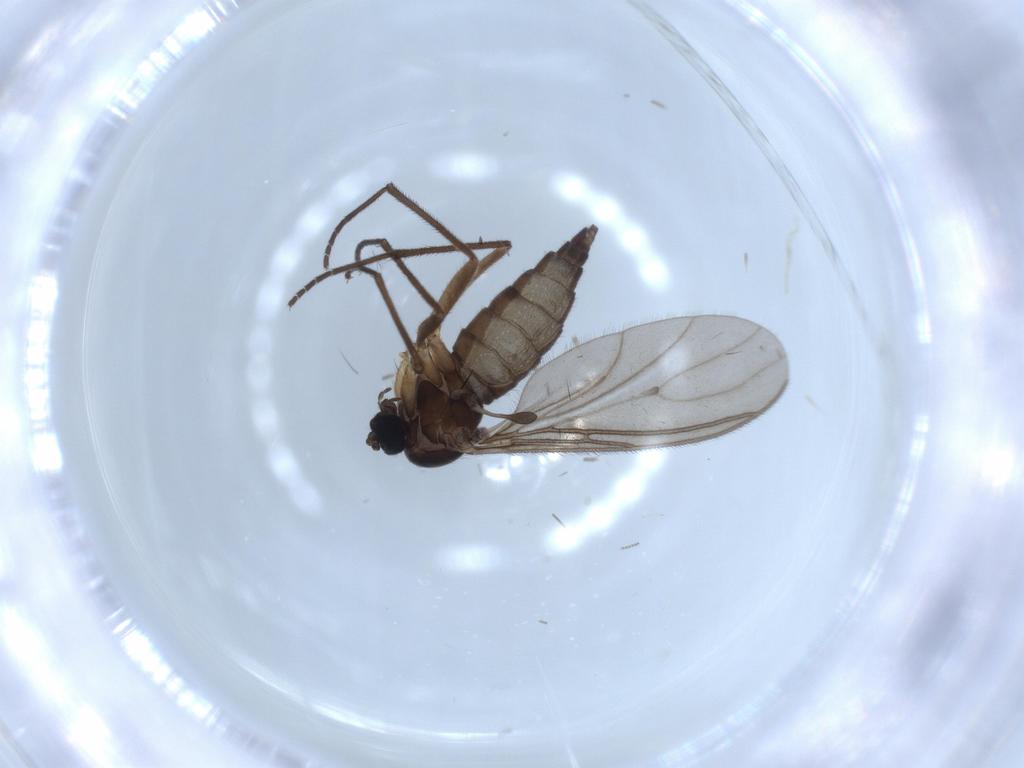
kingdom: Animalia
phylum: Arthropoda
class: Insecta
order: Diptera
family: Sciaridae
